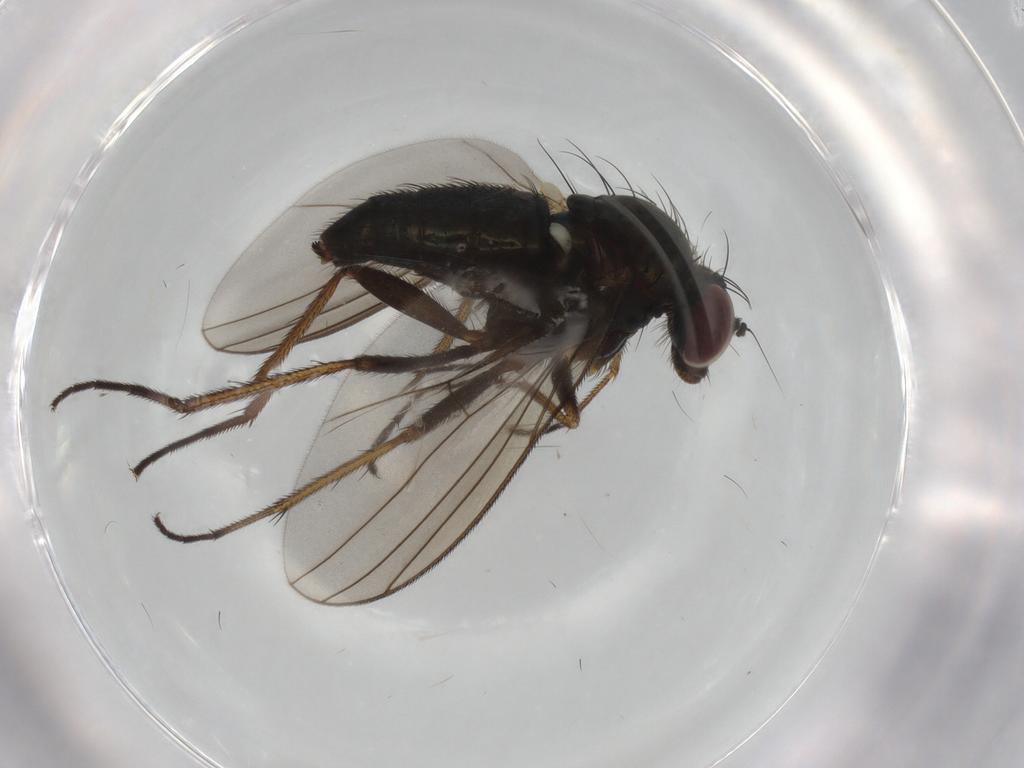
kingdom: Animalia
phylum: Arthropoda
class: Insecta
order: Diptera
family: Dolichopodidae
